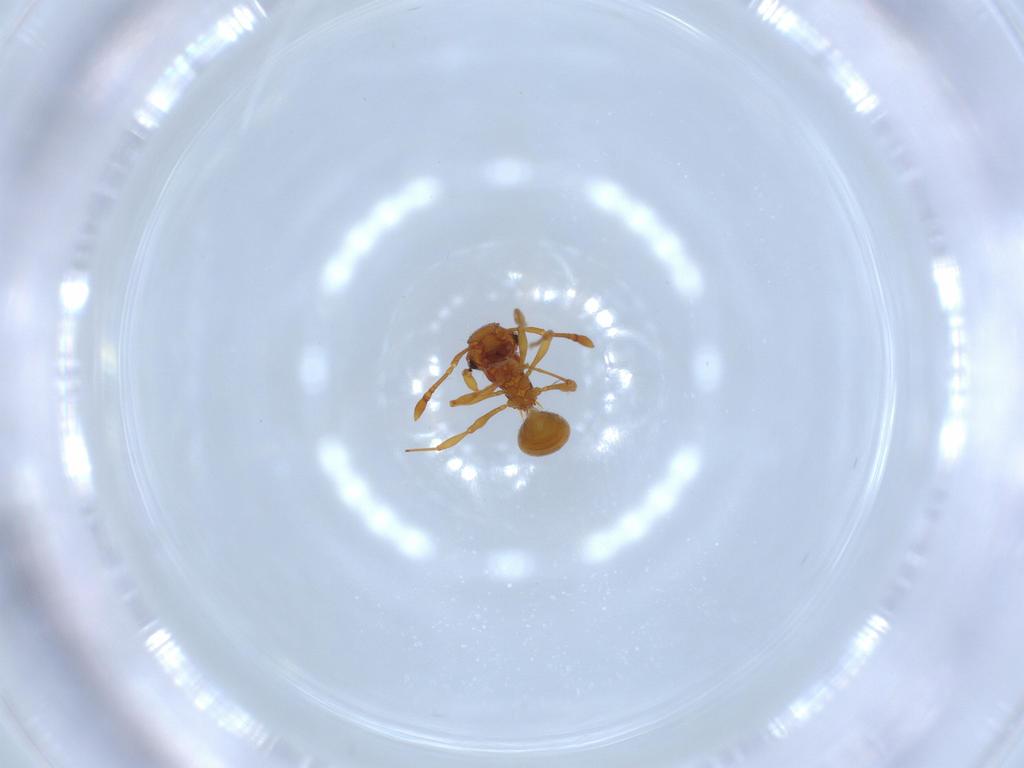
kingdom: Animalia
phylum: Arthropoda
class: Insecta
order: Hymenoptera
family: Formicidae
